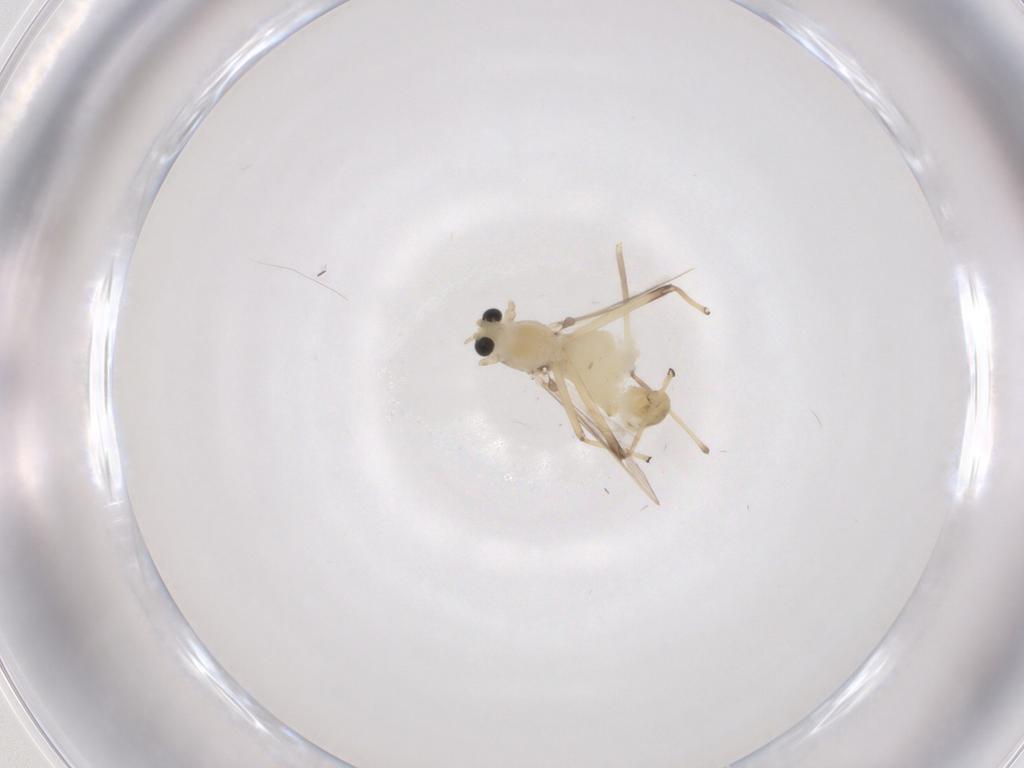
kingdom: Animalia
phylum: Arthropoda
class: Insecta
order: Diptera
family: Chironomidae
